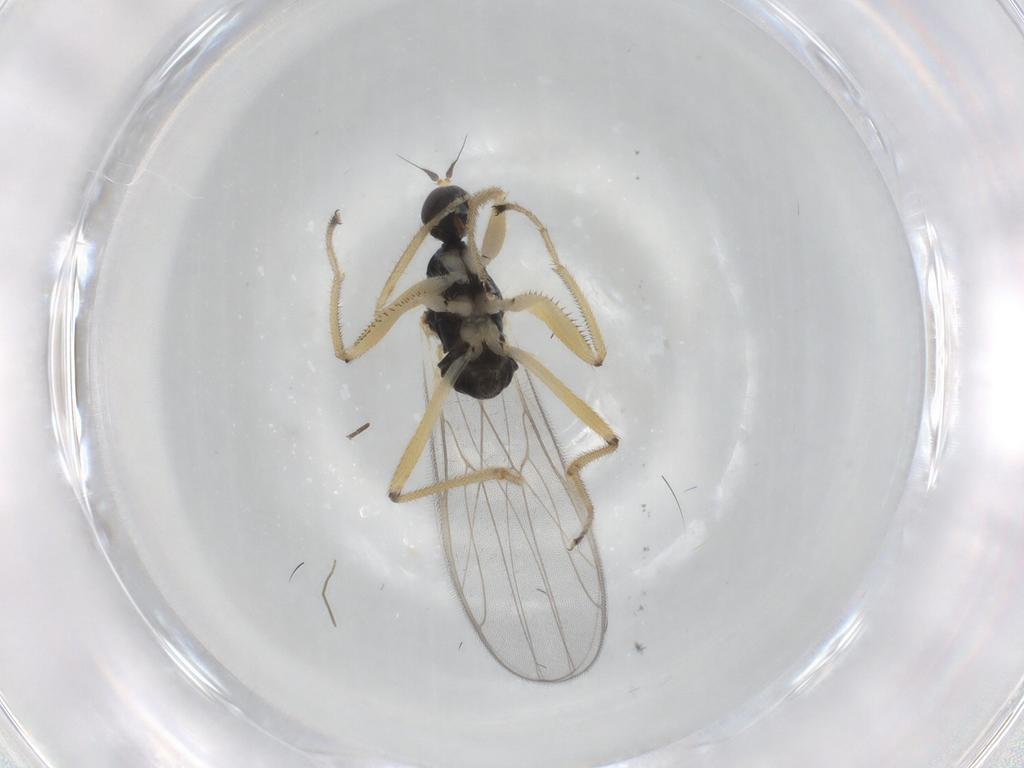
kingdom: Animalia
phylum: Arthropoda
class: Insecta
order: Diptera
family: Hybotidae
